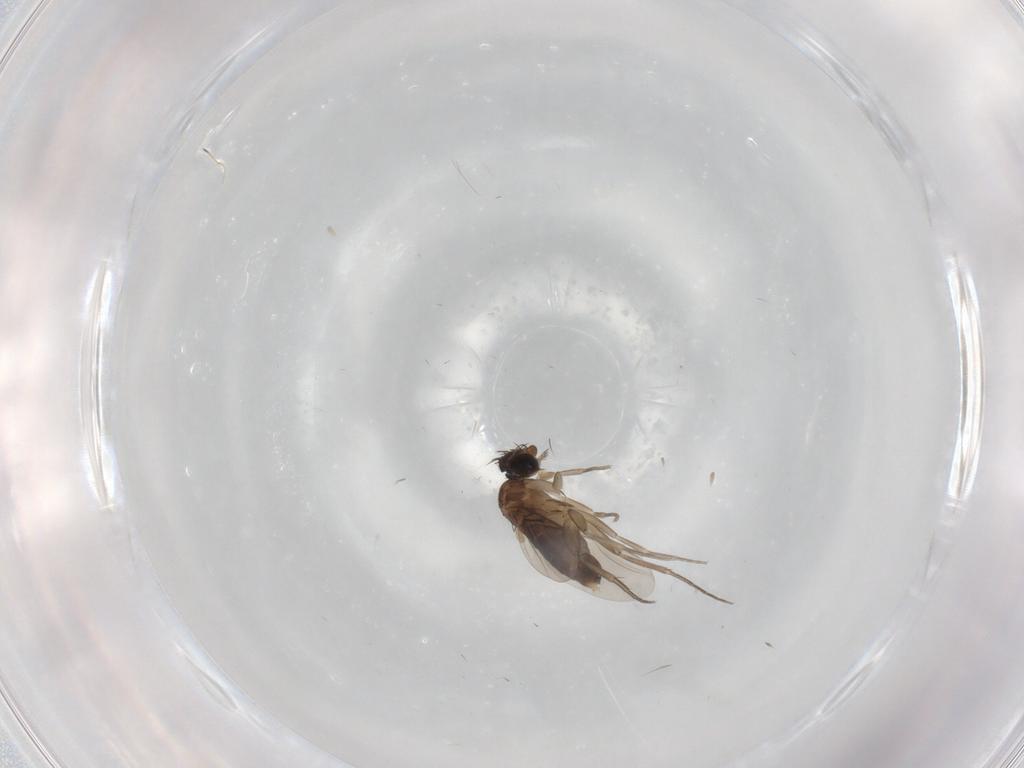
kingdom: Animalia
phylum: Arthropoda
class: Insecta
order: Diptera
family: Phoridae
